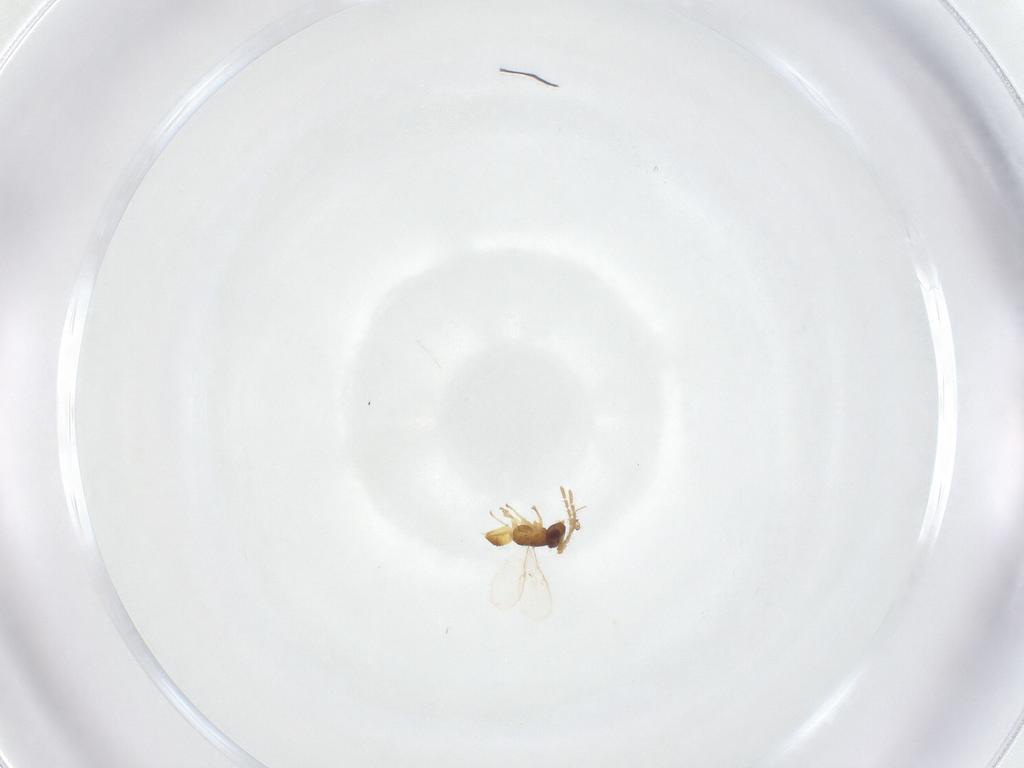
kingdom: Animalia
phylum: Arthropoda
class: Insecta
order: Hymenoptera
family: Encyrtidae
